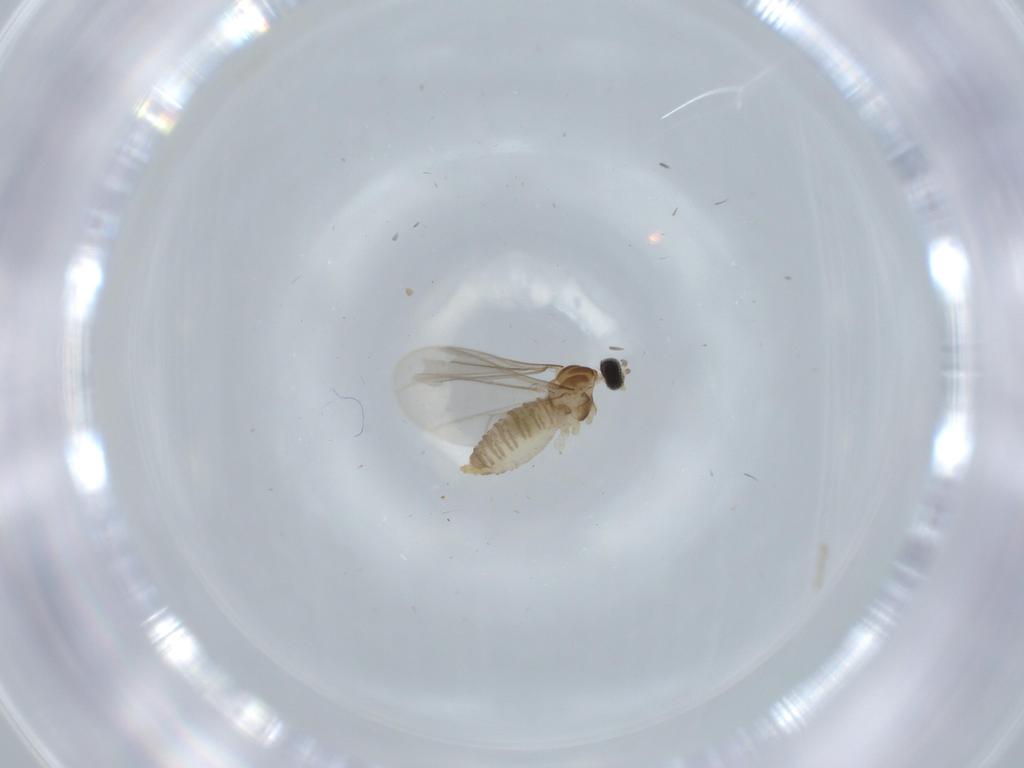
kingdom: Animalia
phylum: Arthropoda
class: Insecta
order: Diptera
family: Cecidomyiidae
